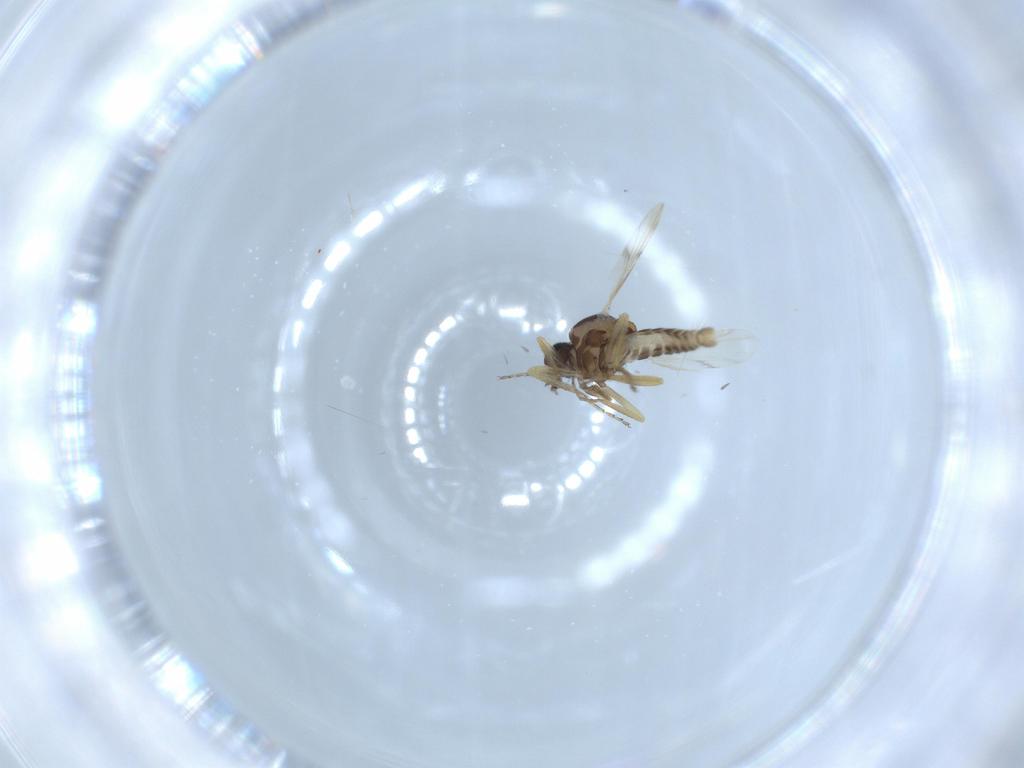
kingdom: Animalia
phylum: Arthropoda
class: Insecta
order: Diptera
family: Ceratopogonidae
